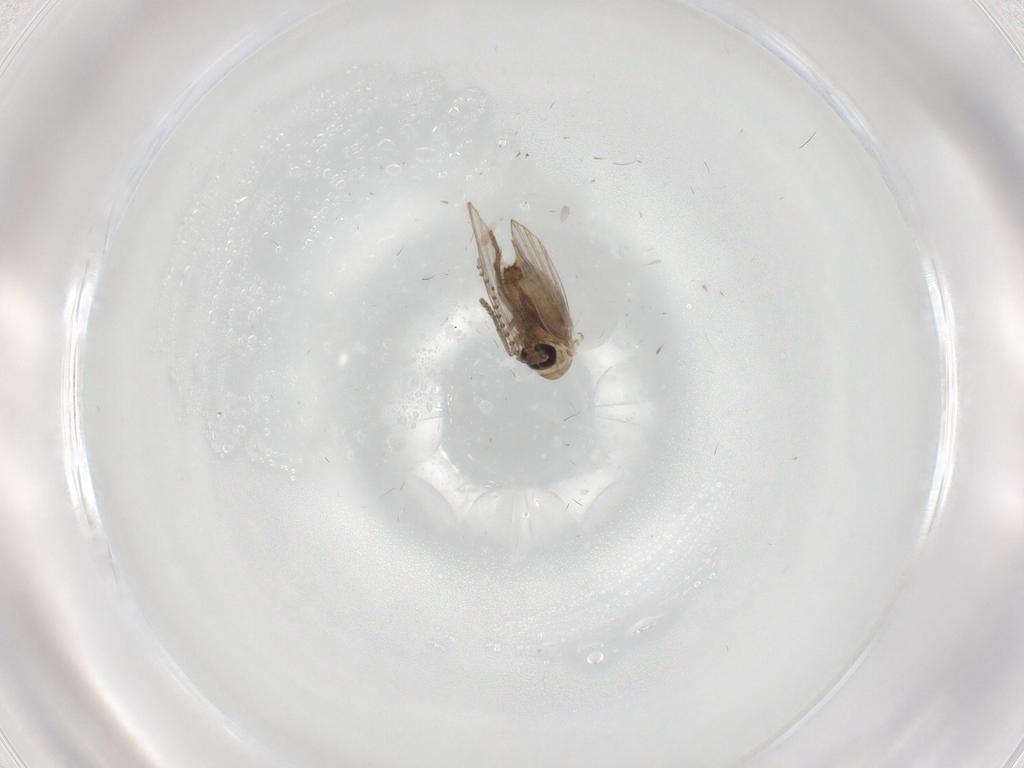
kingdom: Animalia
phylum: Arthropoda
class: Insecta
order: Diptera
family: Psychodidae
